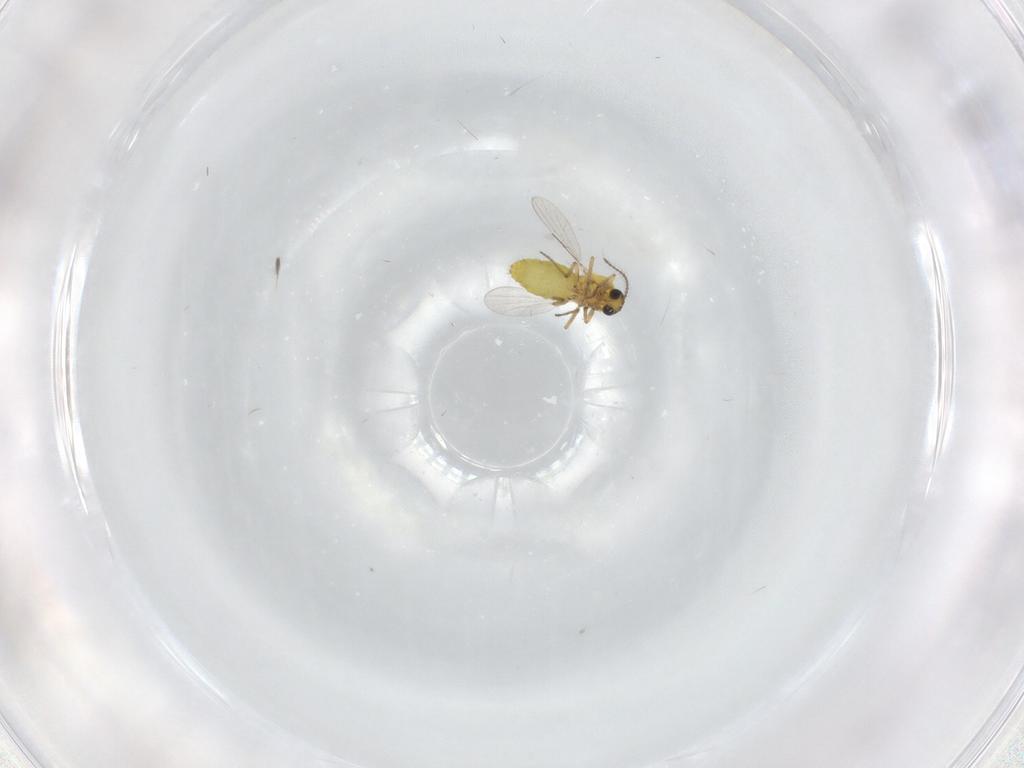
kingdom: Animalia
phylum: Arthropoda
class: Insecta
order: Diptera
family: Ceratopogonidae
